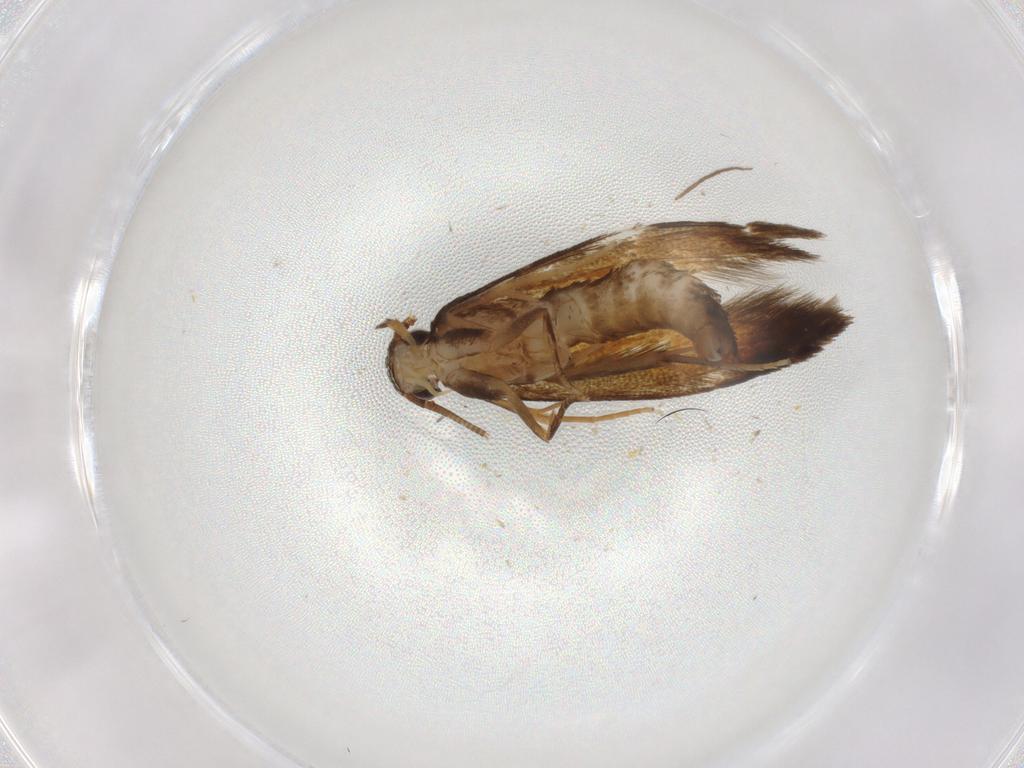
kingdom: Animalia
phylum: Arthropoda
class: Insecta
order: Lepidoptera
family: Tineidae
